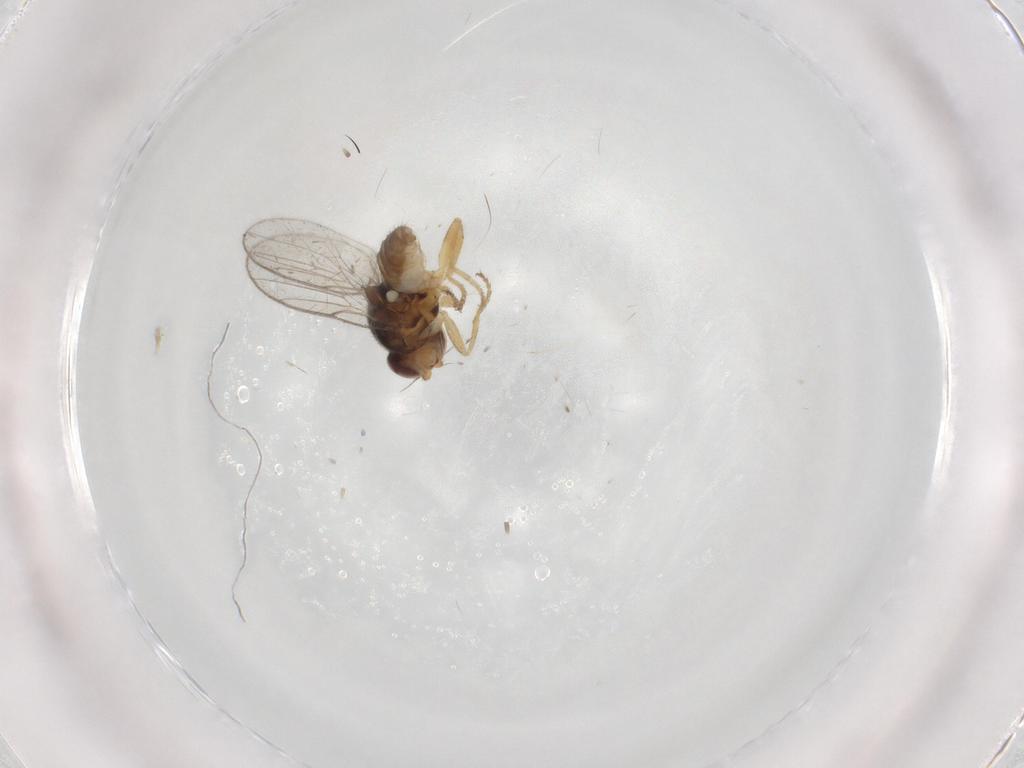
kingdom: Animalia
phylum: Arthropoda
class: Insecta
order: Diptera
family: Chloropidae
